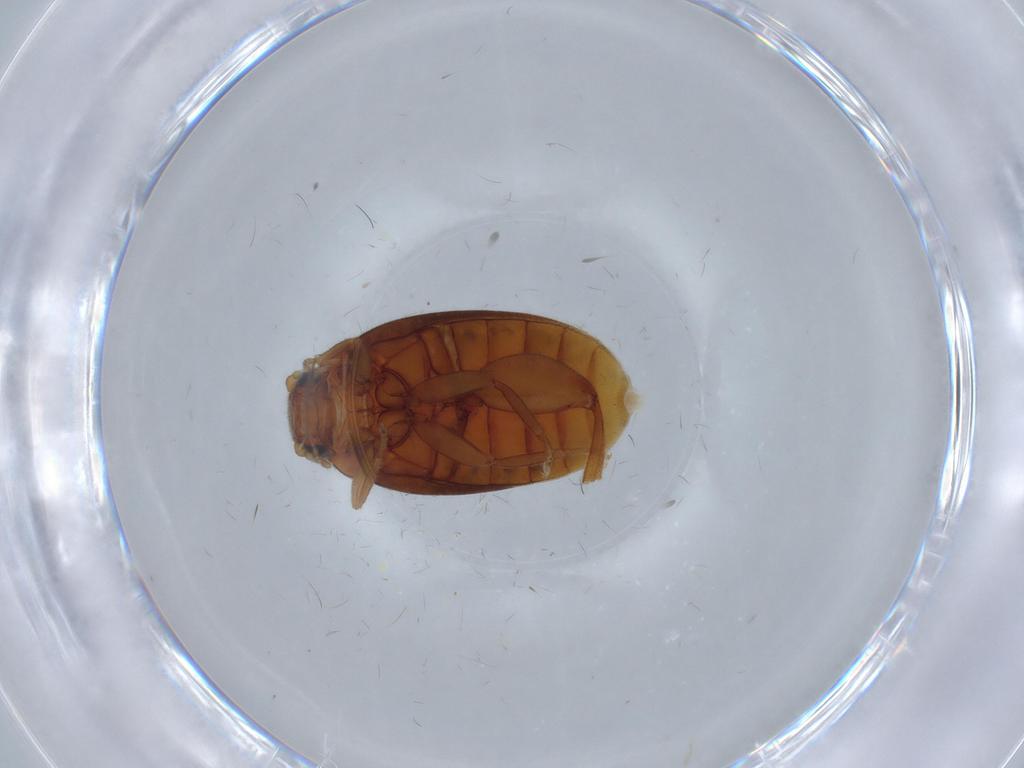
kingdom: Animalia
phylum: Arthropoda
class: Insecta
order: Coleoptera
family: Scirtidae
